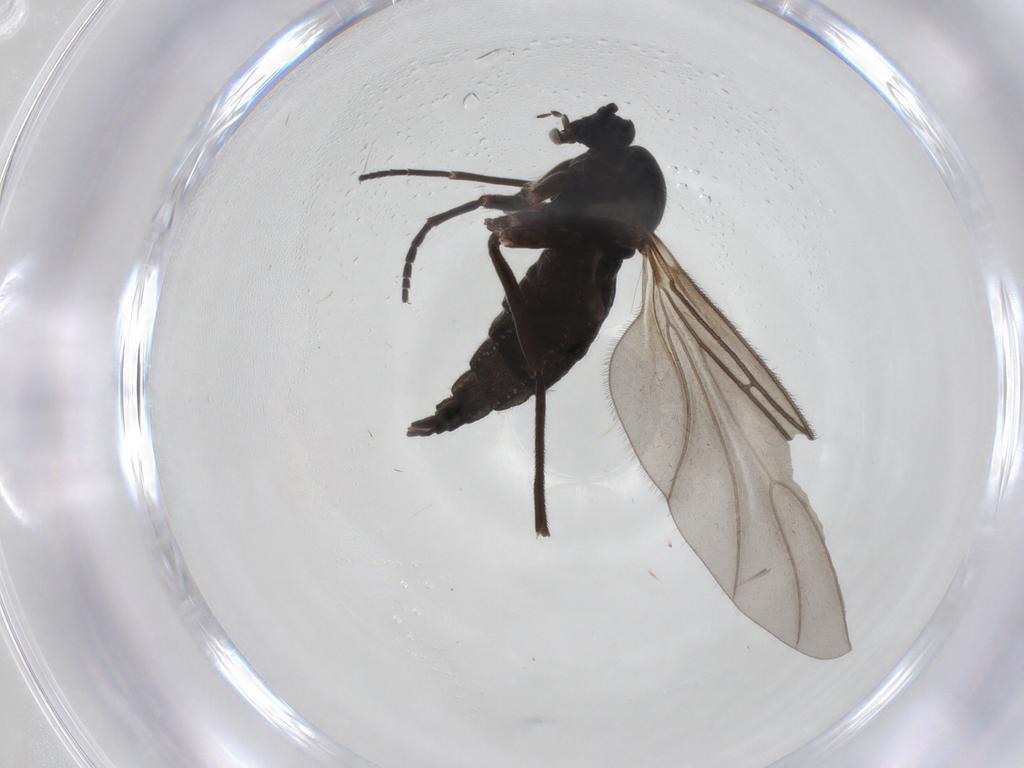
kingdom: Animalia
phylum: Arthropoda
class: Insecta
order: Diptera
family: Sciaridae
